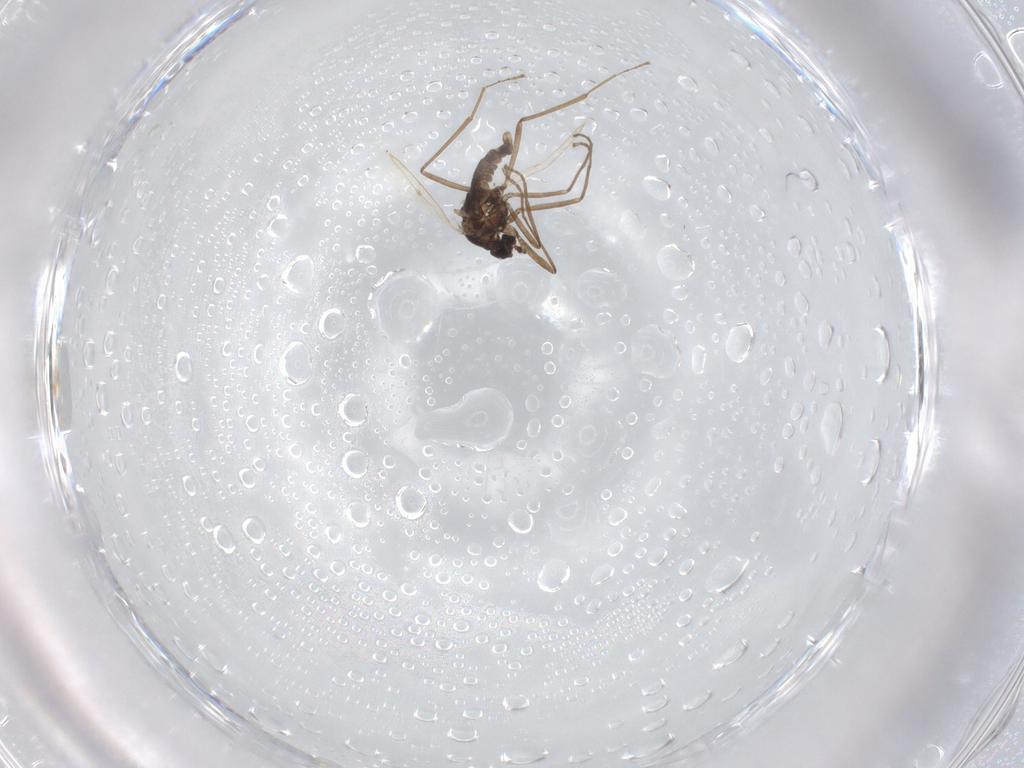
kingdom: Animalia
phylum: Arthropoda
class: Insecta
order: Diptera
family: Cecidomyiidae
